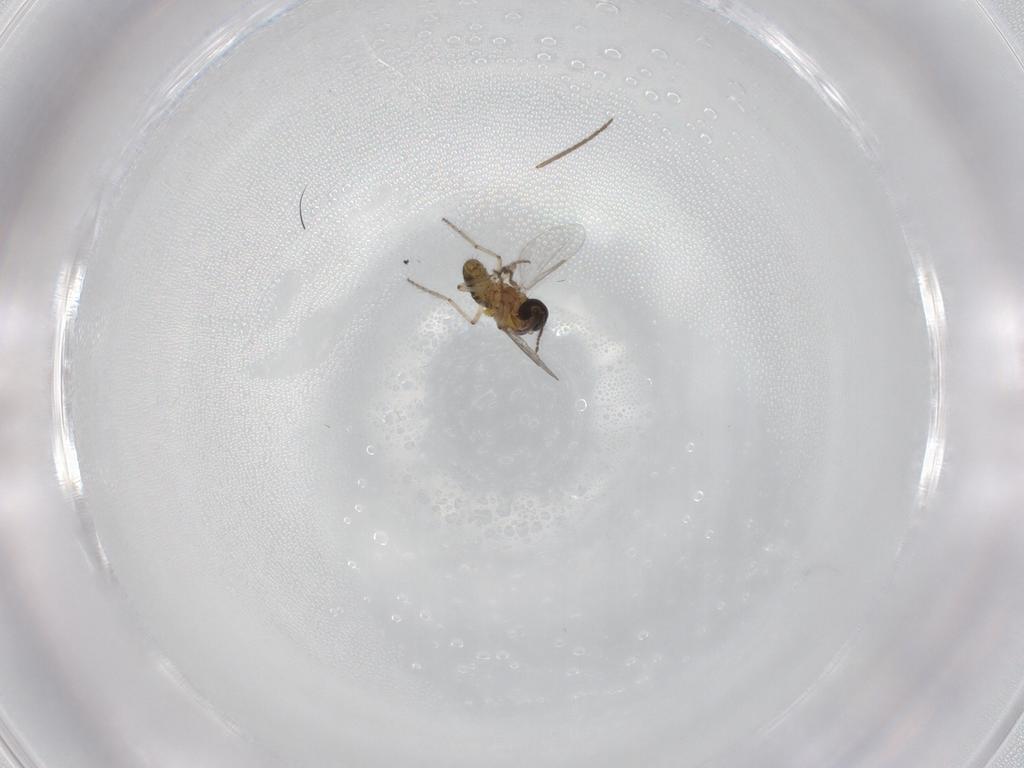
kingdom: Animalia
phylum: Arthropoda
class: Insecta
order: Diptera
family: Ceratopogonidae
